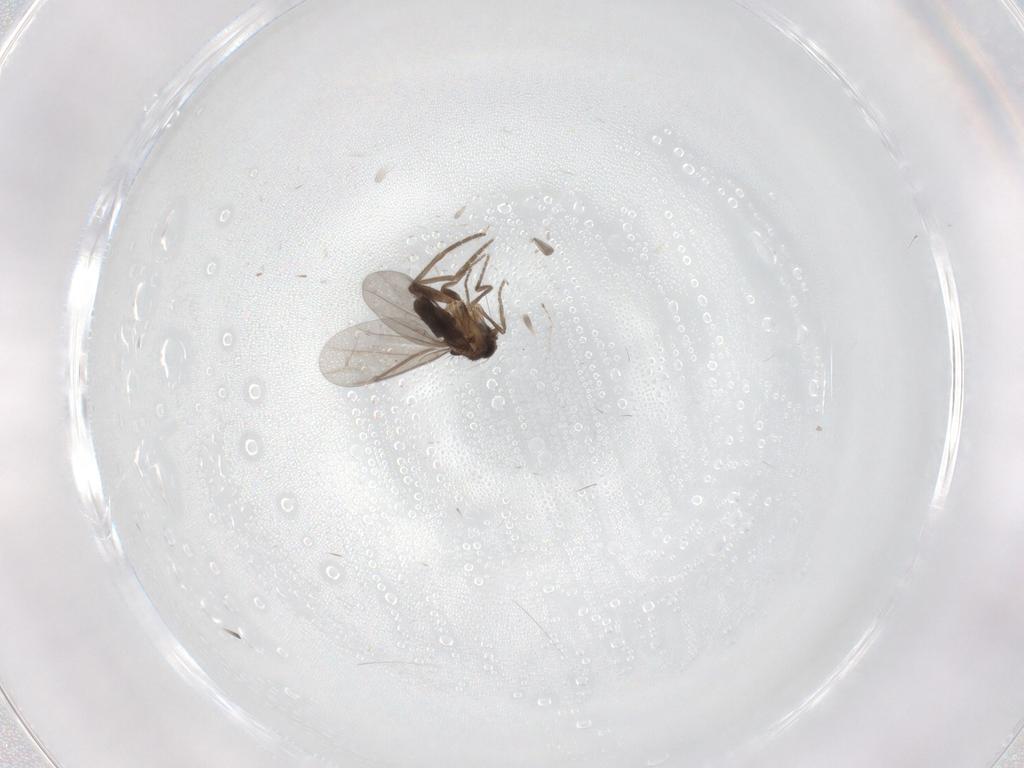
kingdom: Animalia
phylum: Arthropoda
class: Insecta
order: Diptera
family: Phoridae
